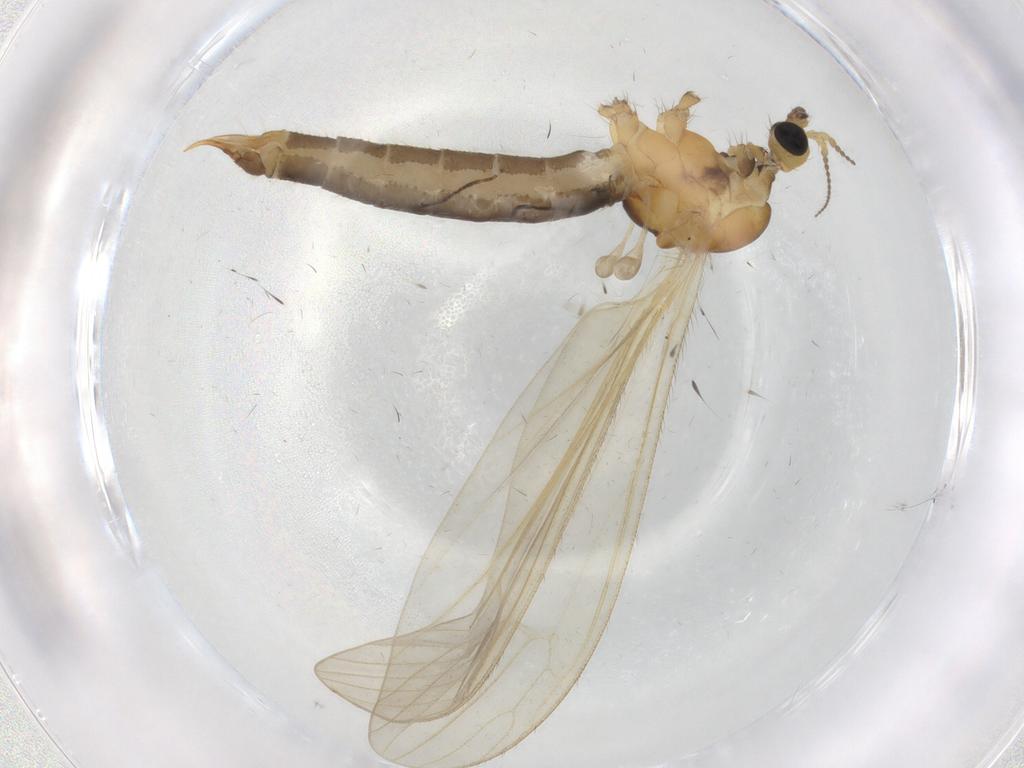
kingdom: Animalia
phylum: Arthropoda
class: Insecta
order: Diptera
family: Limoniidae
